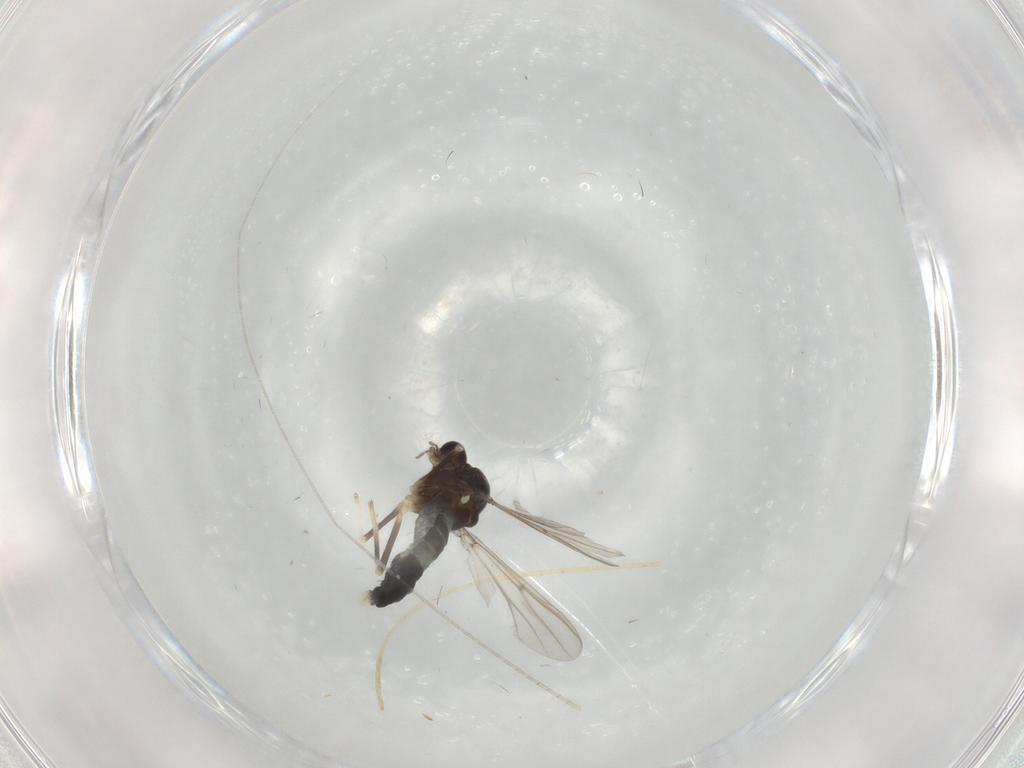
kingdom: Animalia
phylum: Arthropoda
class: Insecta
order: Diptera
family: Chironomidae
